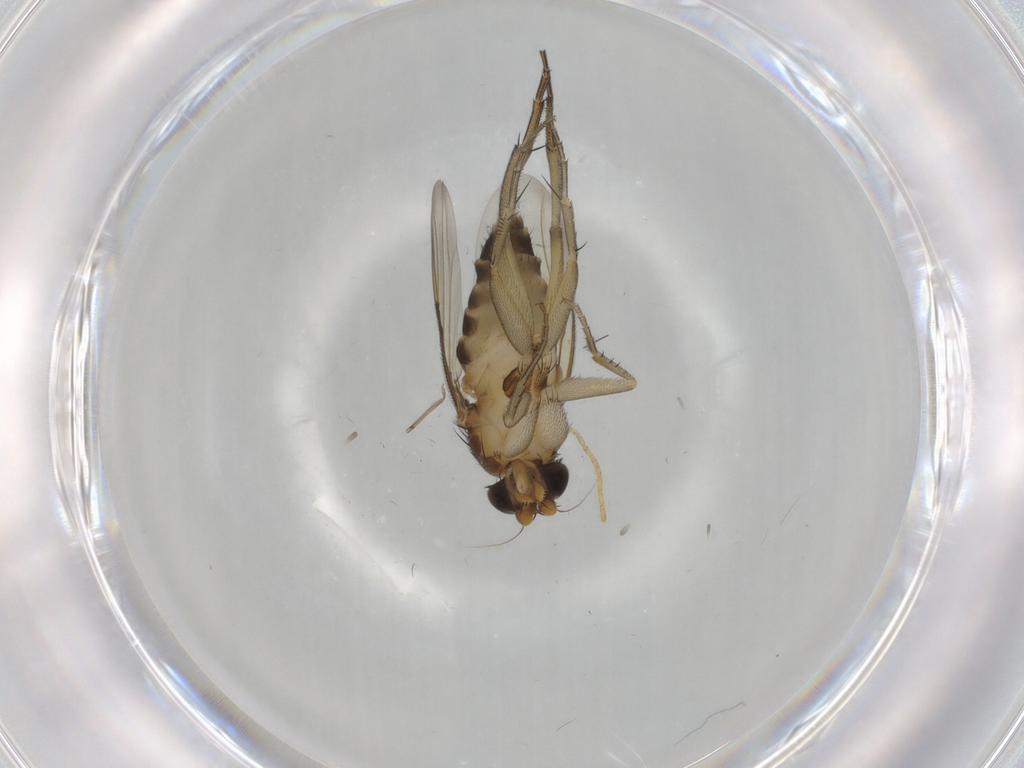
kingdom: Animalia
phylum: Arthropoda
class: Insecta
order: Diptera
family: Phoridae
